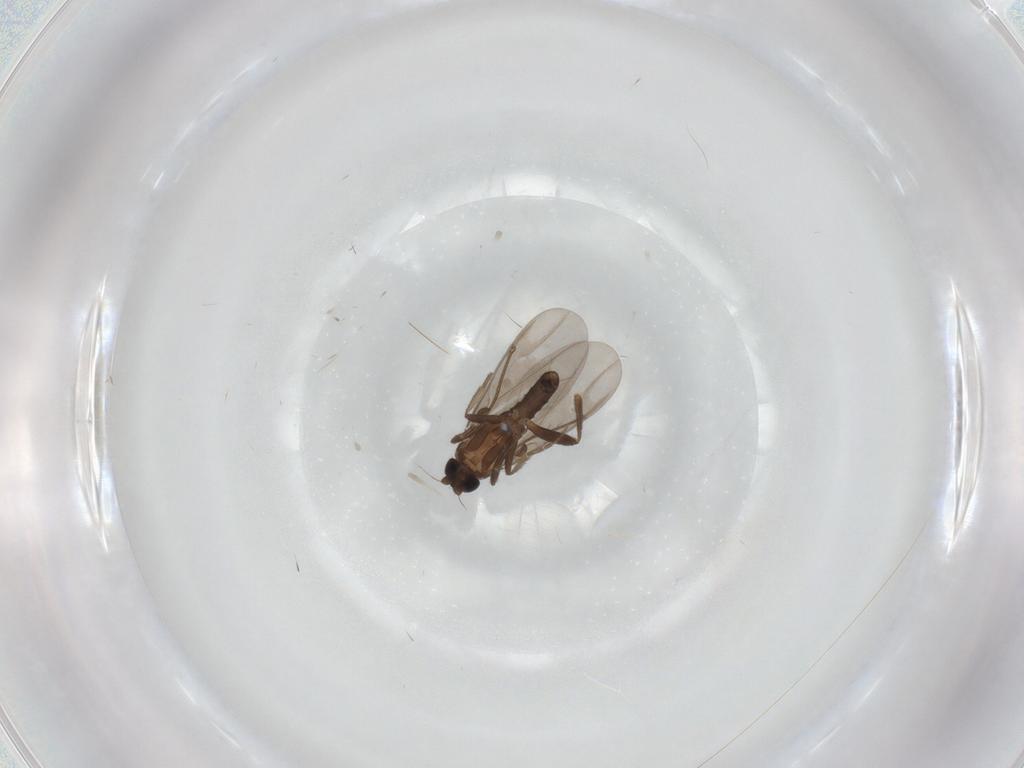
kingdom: Animalia
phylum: Arthropoda
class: Insecta
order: Diptera
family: Phoridae
